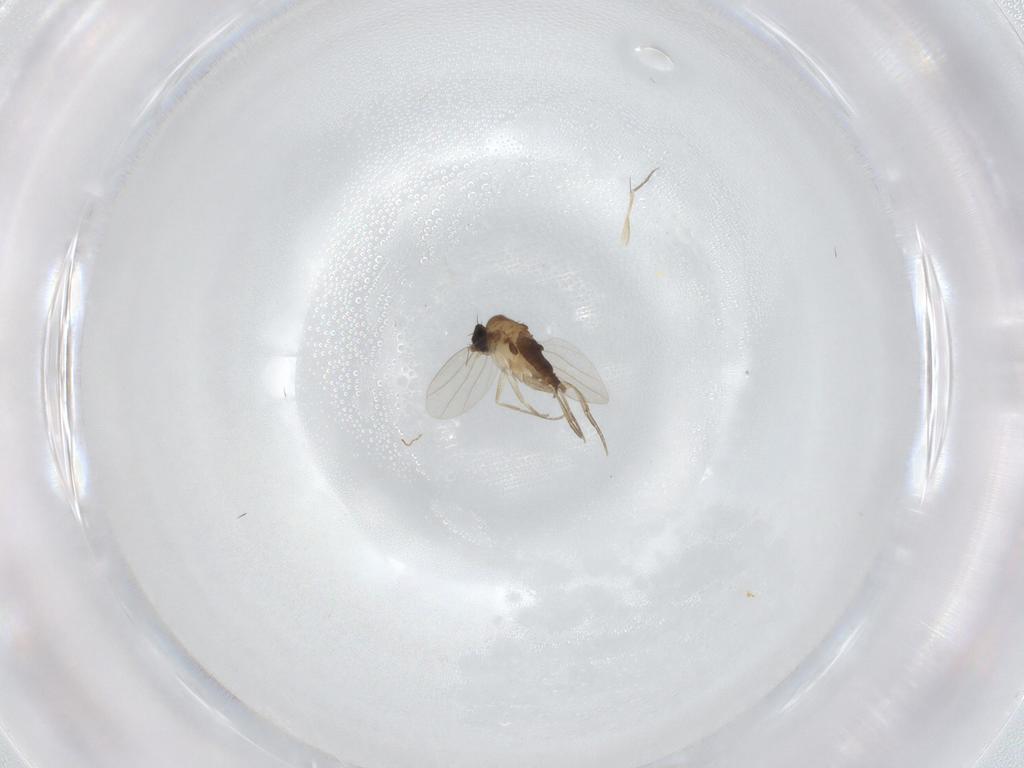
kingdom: Animalia
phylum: Arthropoda
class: Insecta
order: Diptera
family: Phoridae
